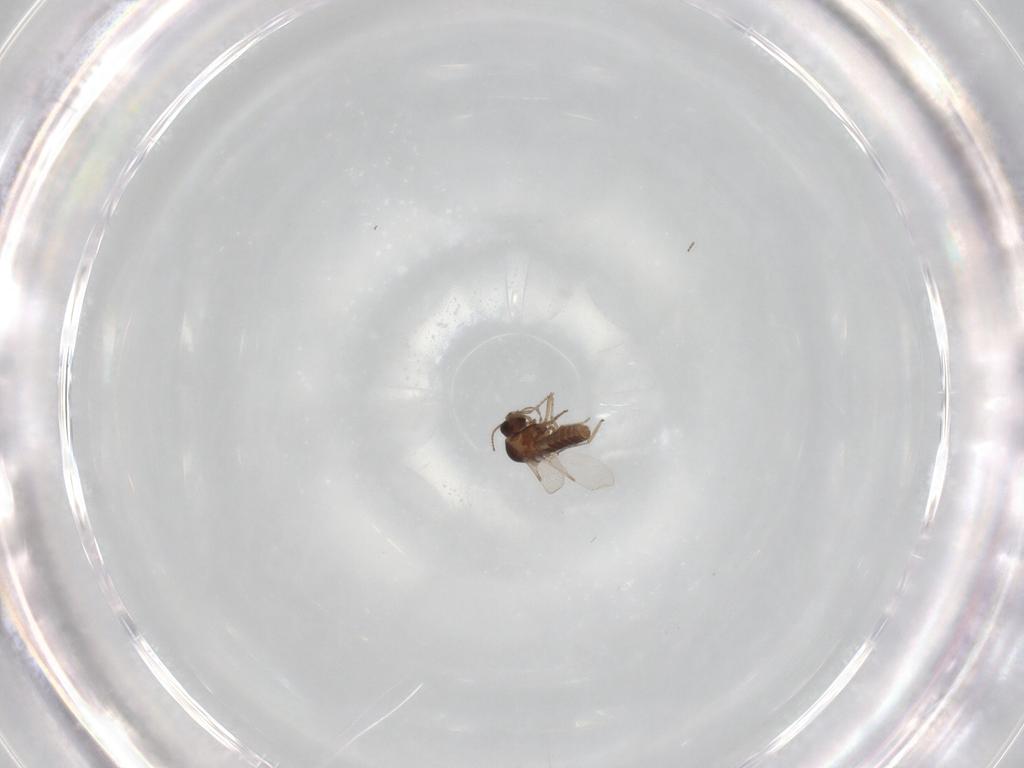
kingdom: Animalia
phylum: Arthropoda
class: Insecta
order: Diptera
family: Ceratopogonidae
